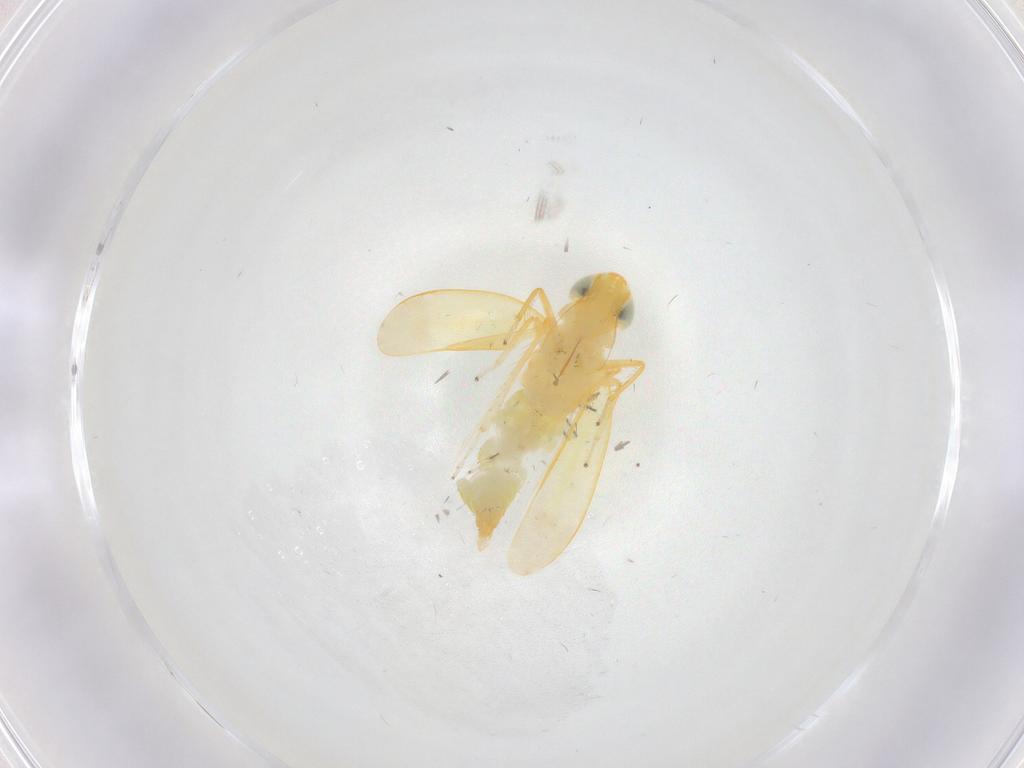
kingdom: Animalia
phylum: Arthropoda
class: Insecta
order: Hemiptera
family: Cicadellidae
